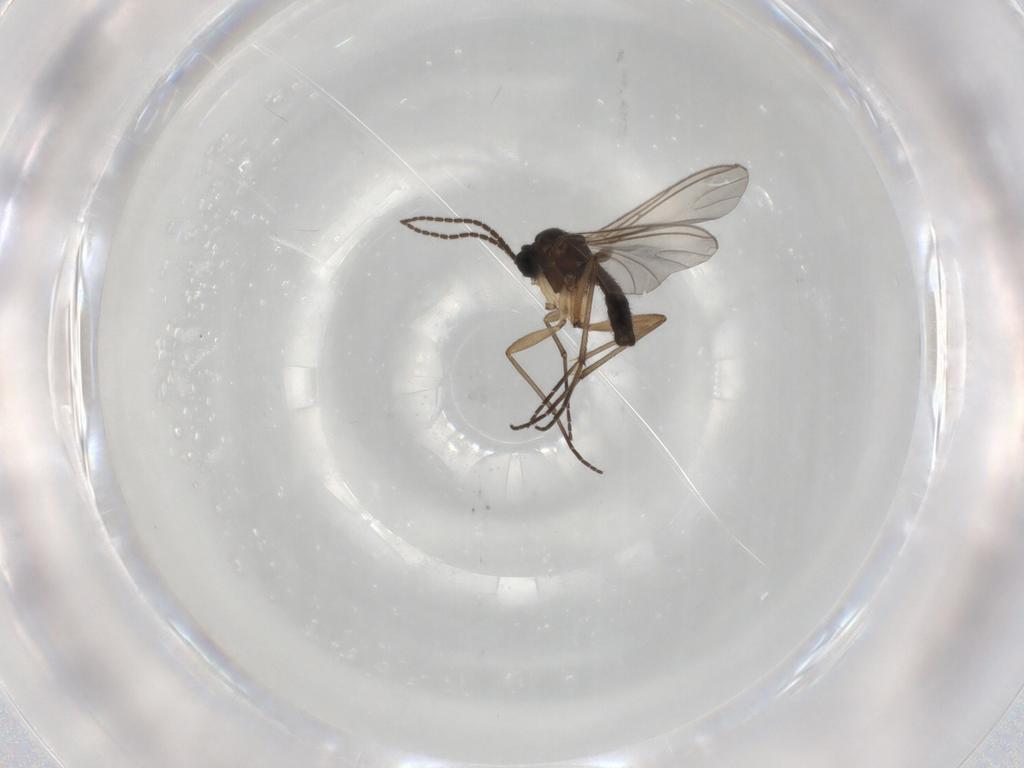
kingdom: Animalia
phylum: Arthropoda
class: Insecta
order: Diptera
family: Sciaridae
